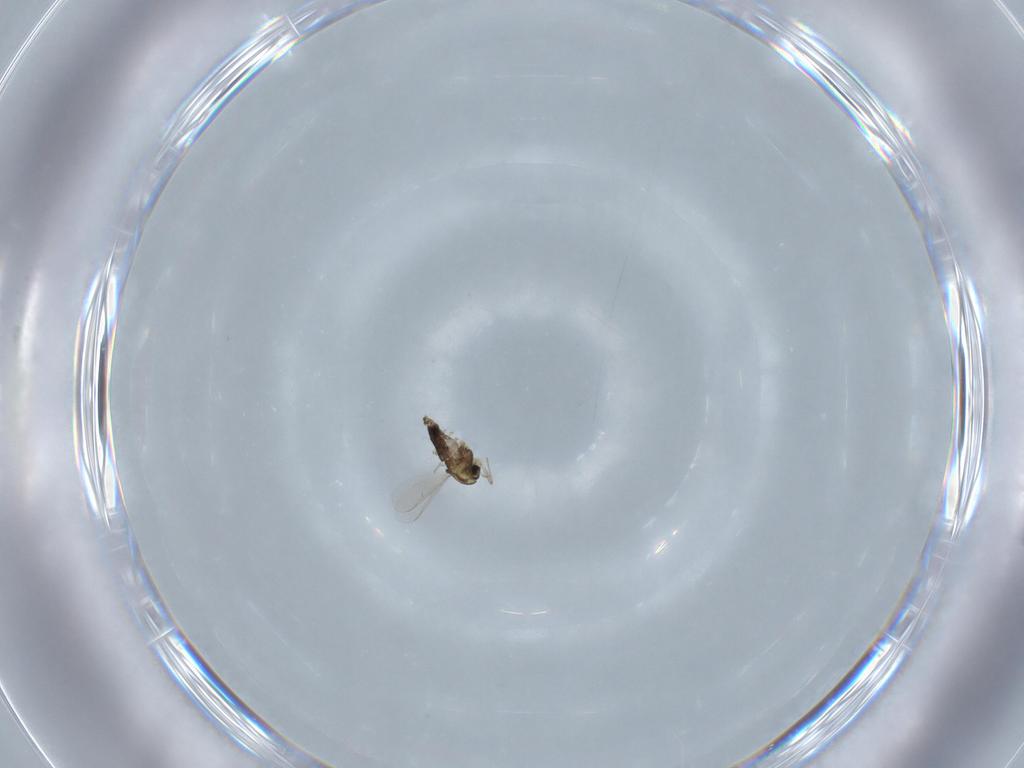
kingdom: Animalia
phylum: Arthropoda
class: Insecta
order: Diptera
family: Chironomidae
